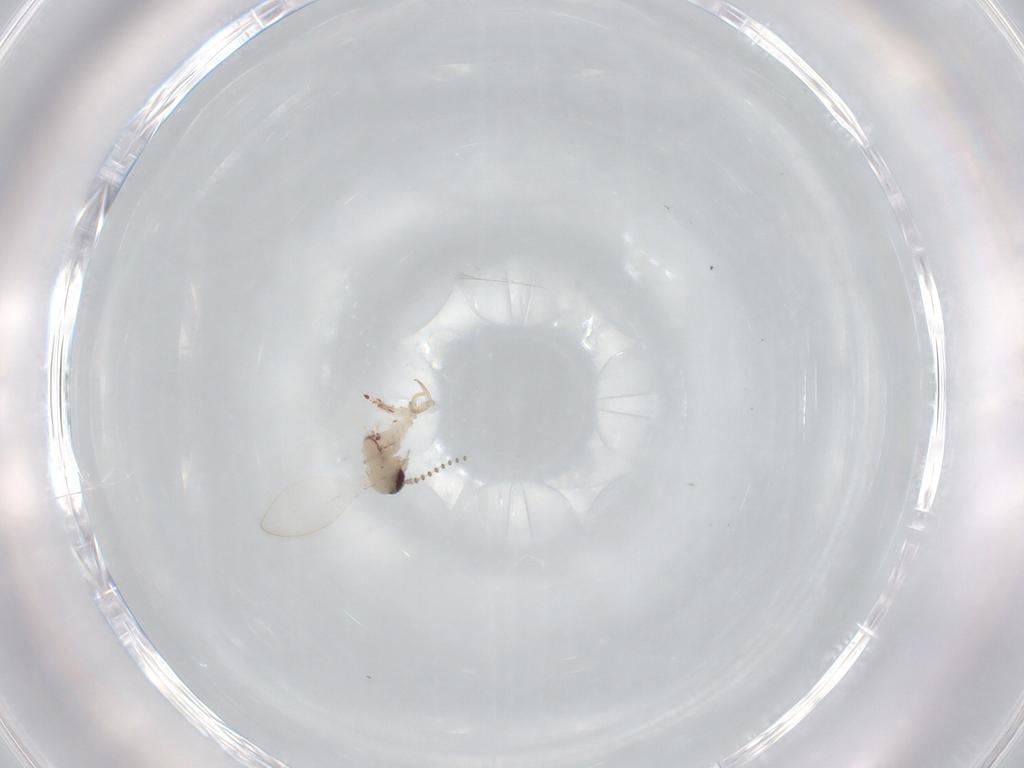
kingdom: Animalia
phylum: Arthropoda
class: Insecta
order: Diptera
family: Psychodidae
